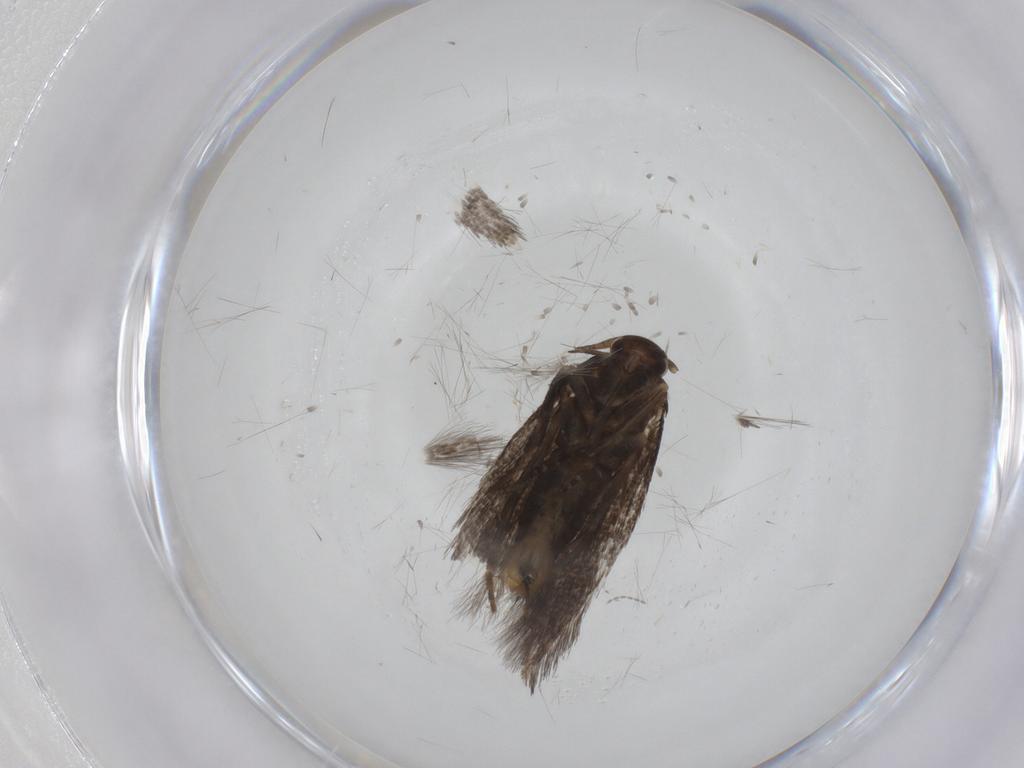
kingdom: Animalia
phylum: Arthropoda
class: Insecta
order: Lepidoptera
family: Elachistidae
